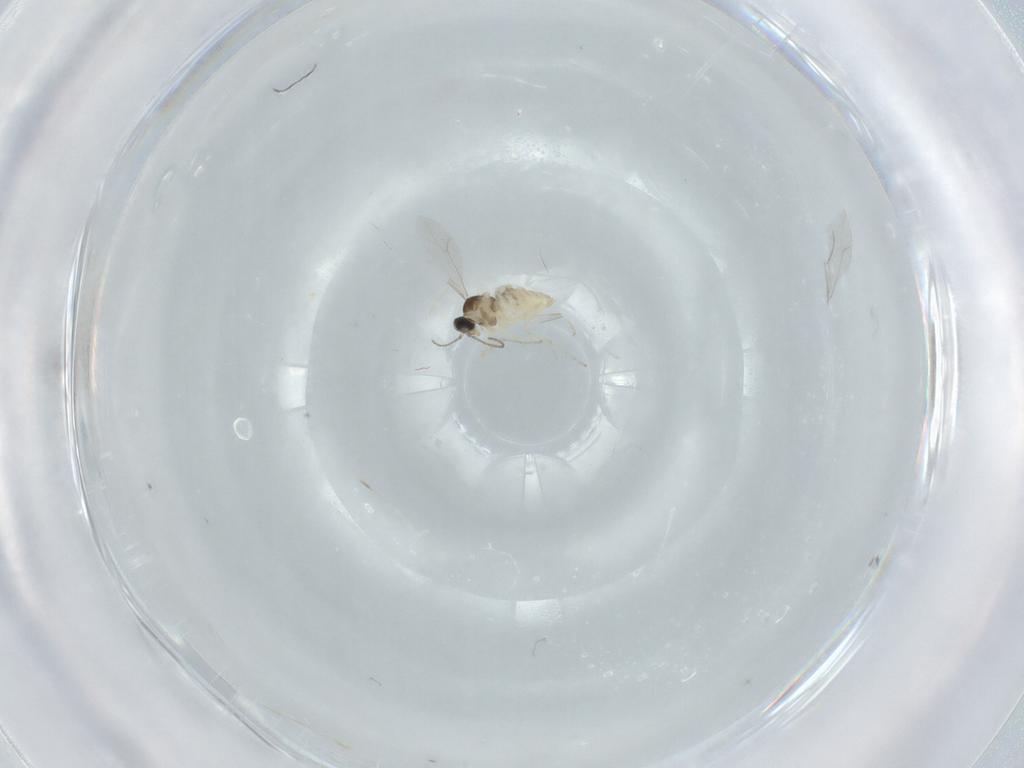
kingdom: Animalia
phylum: Arthropoda
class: Insecta
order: Diptera
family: Cecidomyiidae
